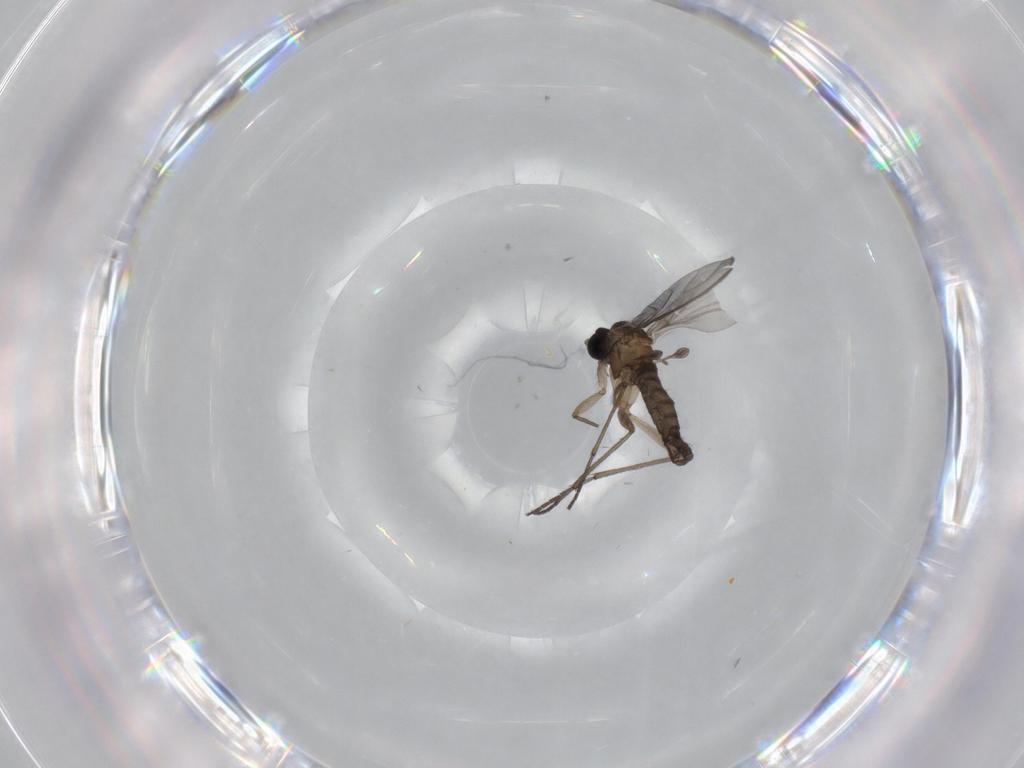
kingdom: Animalia
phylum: Arthropoda
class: Insecta
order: Diptera
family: Sciaridae
